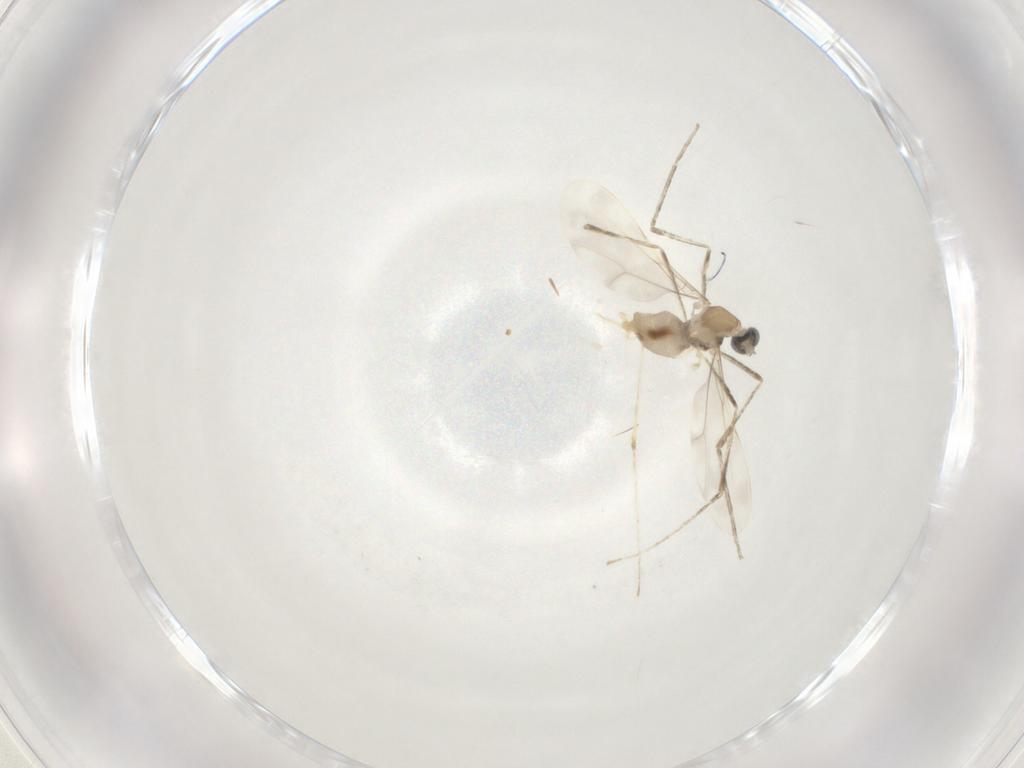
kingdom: Animalia
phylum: Arthropoda
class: Insecta
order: Diptera
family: Cecidomyiidae
